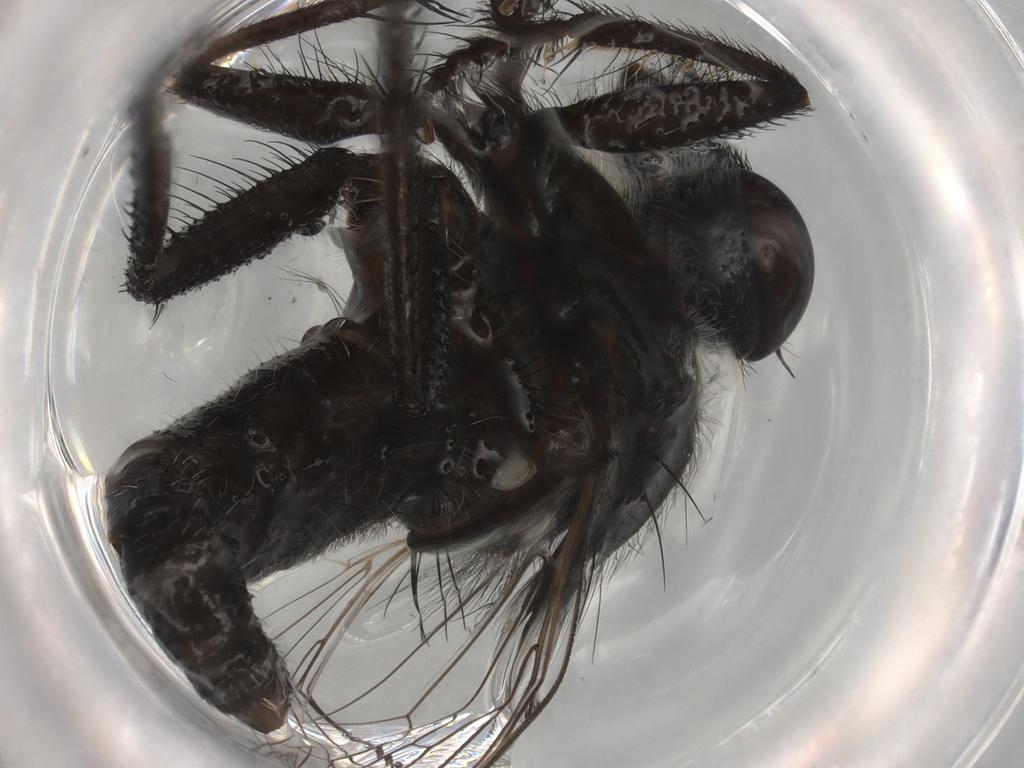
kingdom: Animalia
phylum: Arthropoda
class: Insecta
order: Diptera
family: Asilidae
